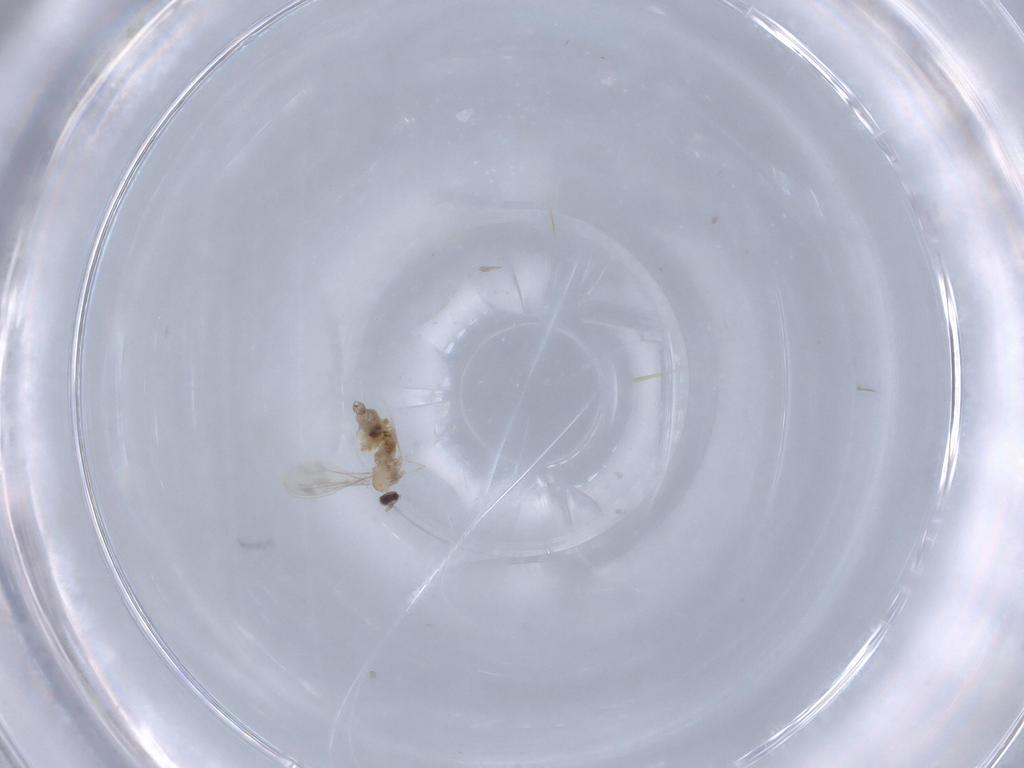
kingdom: Animalia
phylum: Arthropoda
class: Insecta
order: Diptera
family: Cecidomyiidae
